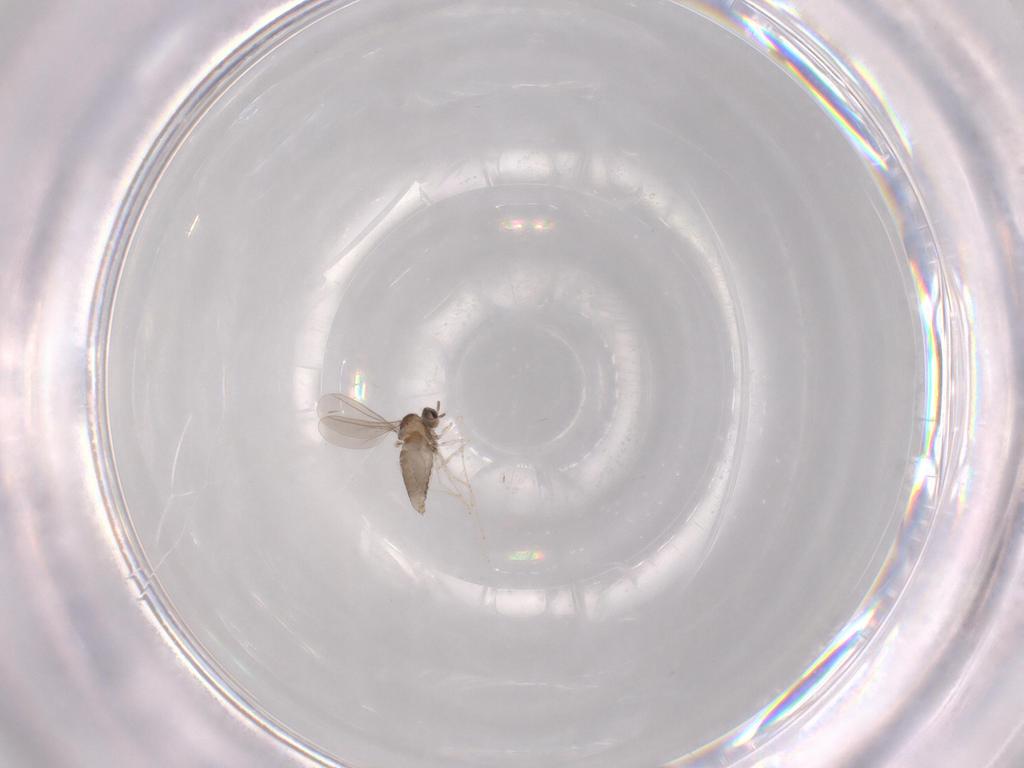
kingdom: Animalia
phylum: Arthropoda
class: Insecta
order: Diptera
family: Cecidomyiidae
